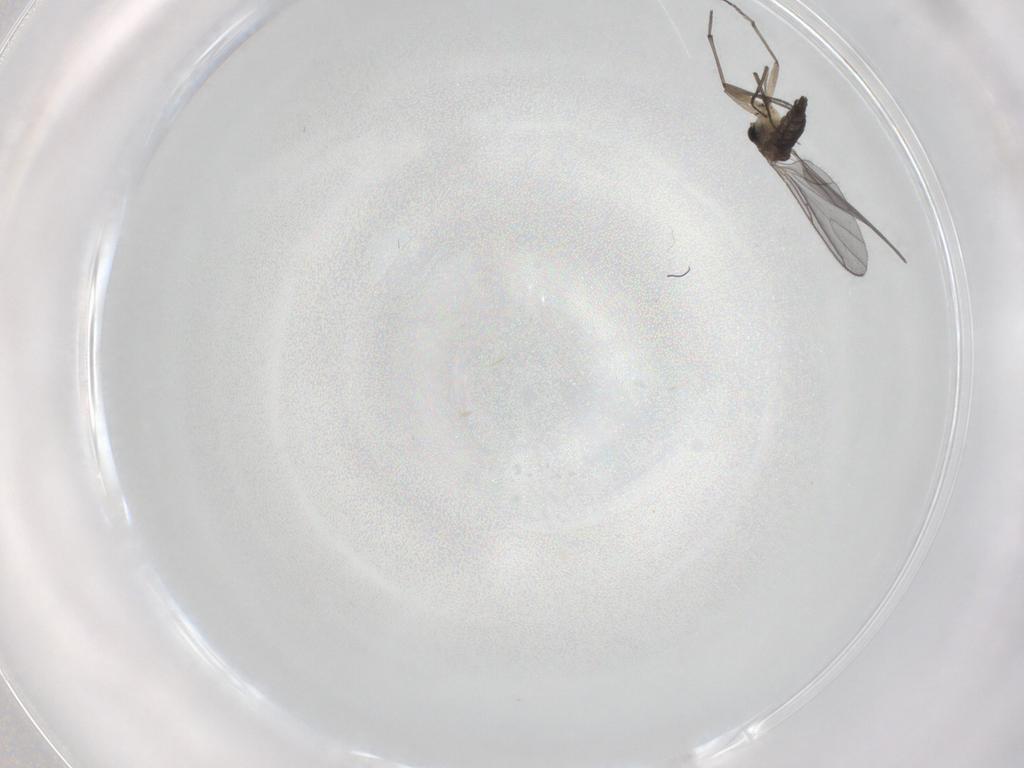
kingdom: Animalia
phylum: Arthropoda
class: Insecta
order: Diptera
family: Sciaridae
